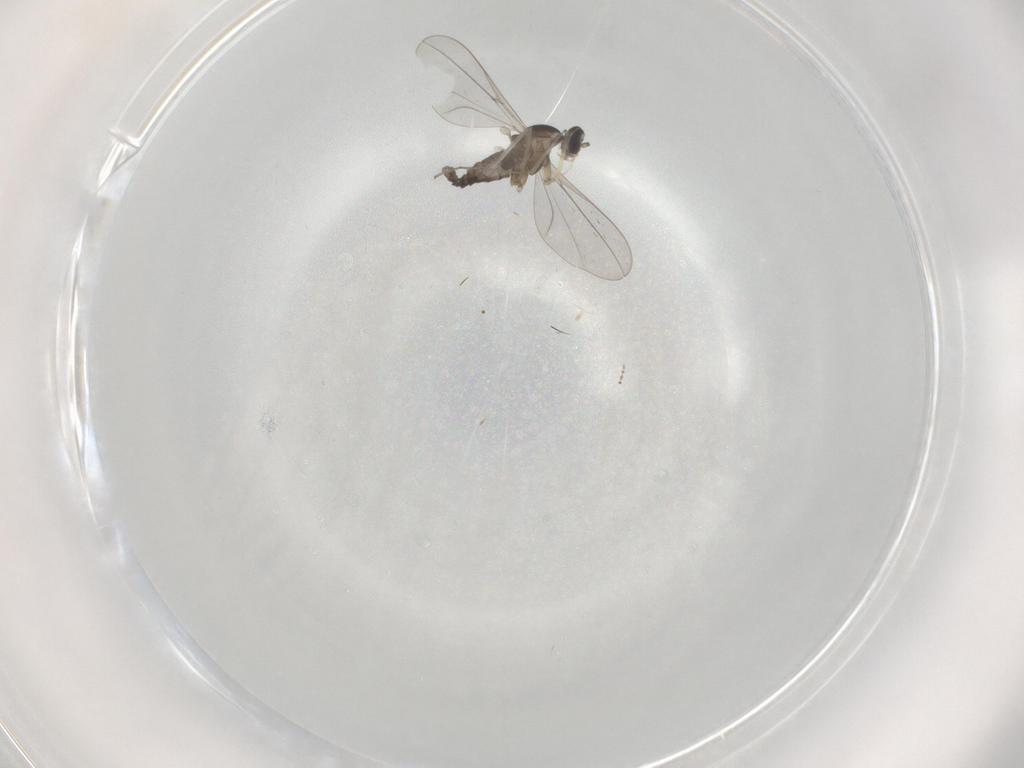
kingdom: Animalia
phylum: Arthropoda
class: Insecta
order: Diptera
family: Cecidomyiidae
